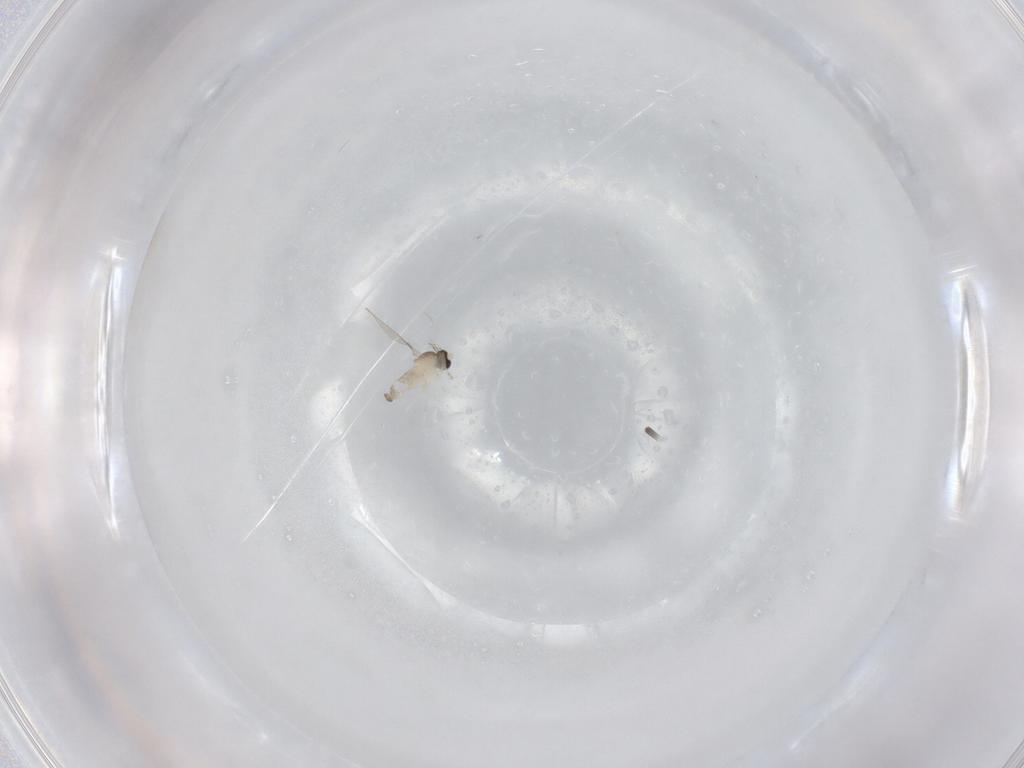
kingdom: Animalia
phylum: Arthropoda
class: Insecta
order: Diptera
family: Cecidomyiidae
